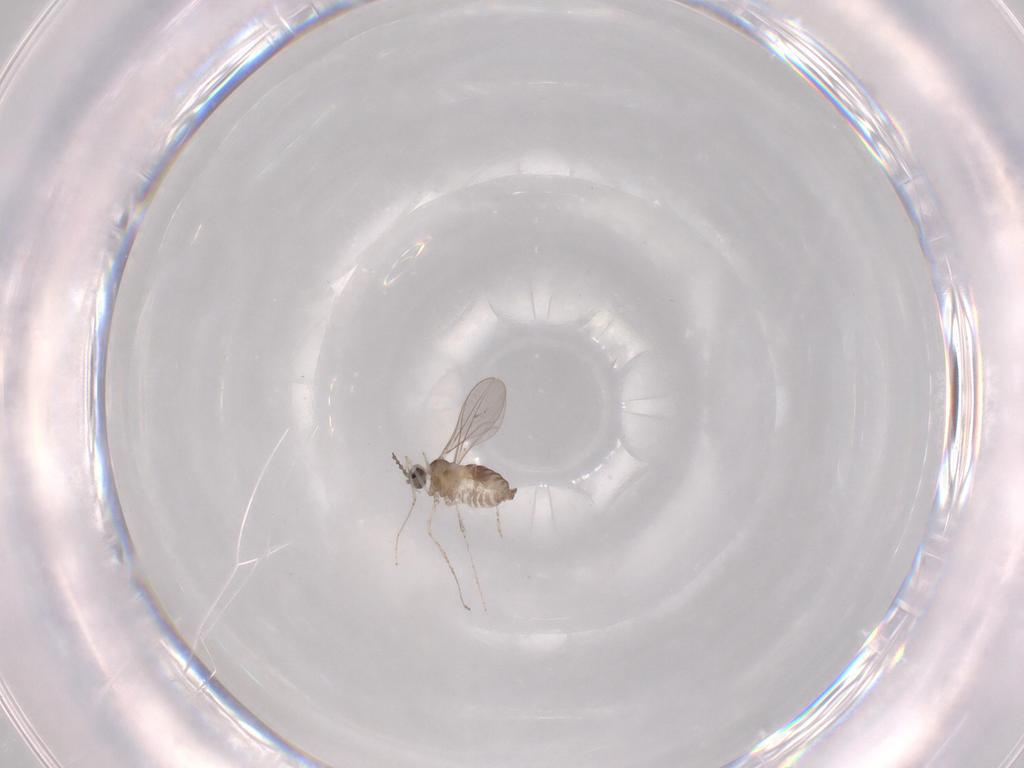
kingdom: Animalia
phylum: Arthropoda
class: Insecta
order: Diptera
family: Cecidomyiidae
